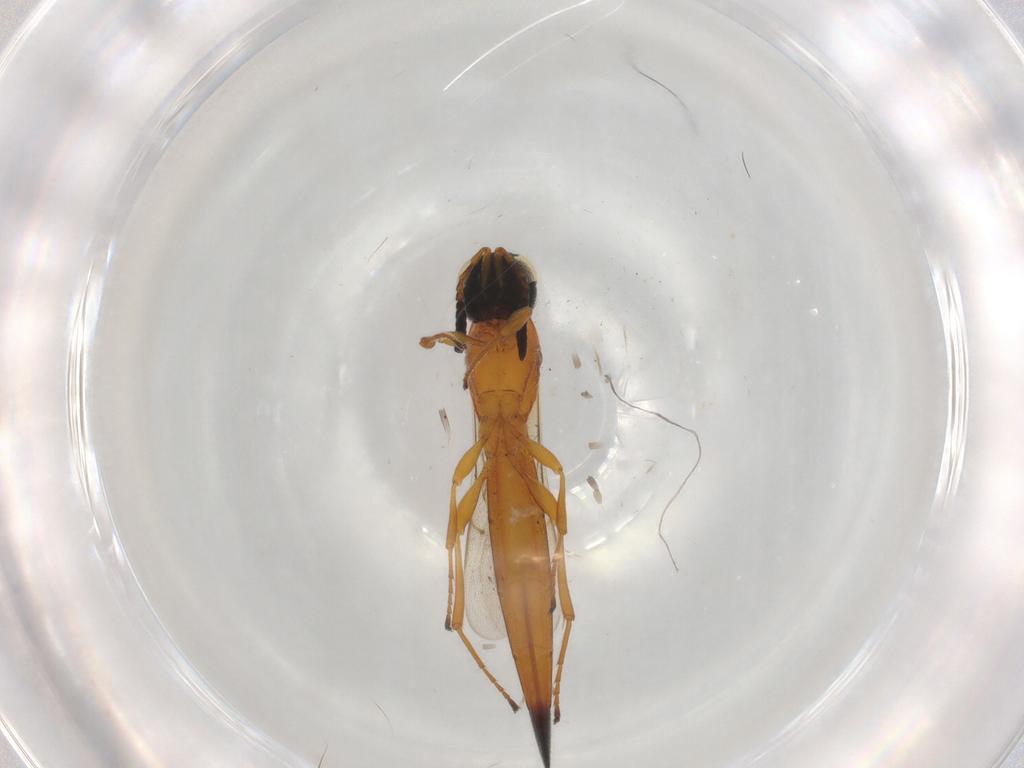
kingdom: Animalia
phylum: Arthropoda
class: Insecta
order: Hymenoptera
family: Scelionidae
